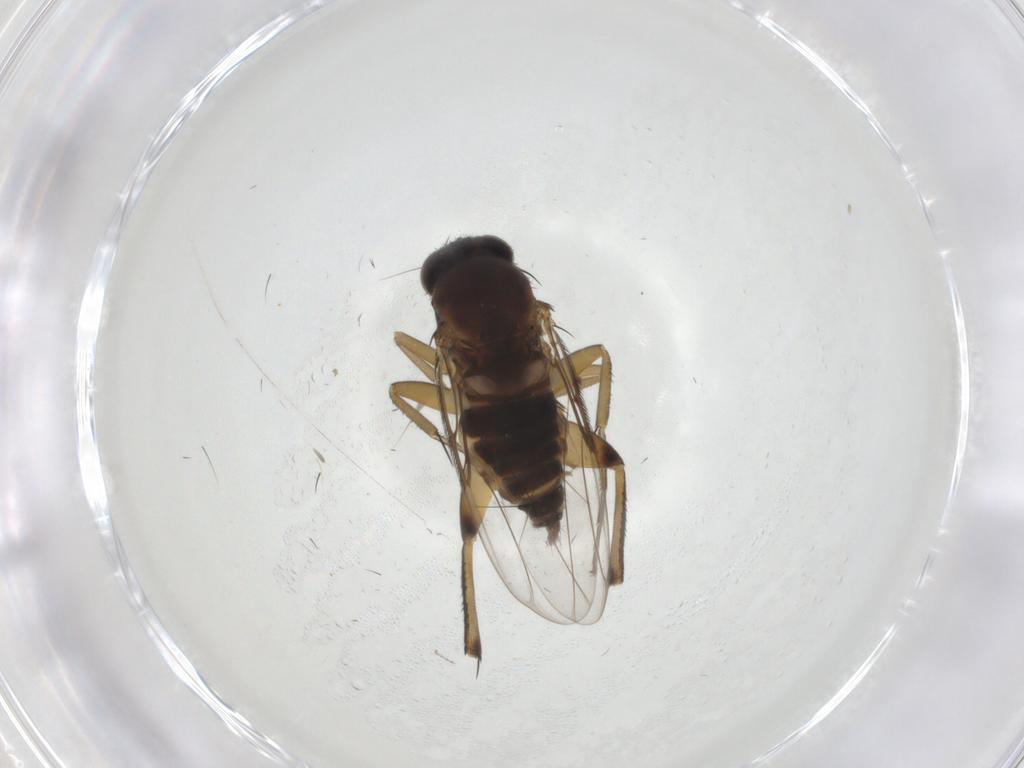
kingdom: Animalia
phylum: Arthropoda
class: Insecta
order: Diptera
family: Phoridae
